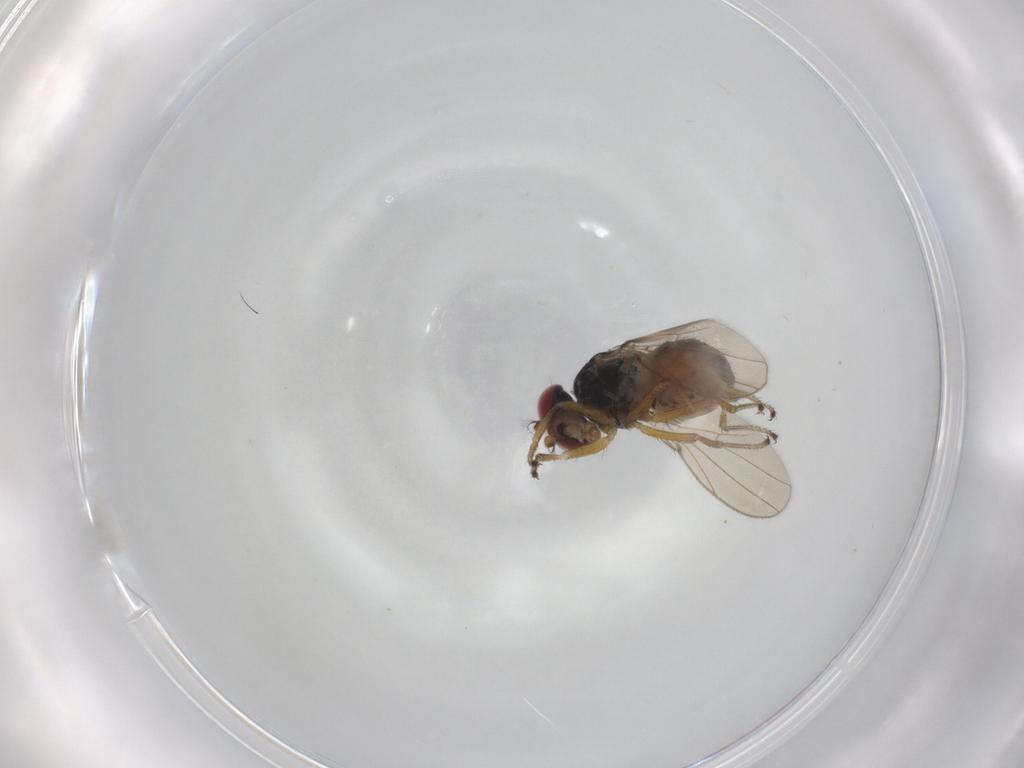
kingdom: Animalia
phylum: Arthropoda
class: Insecta
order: Diptera
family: Ephydridae
